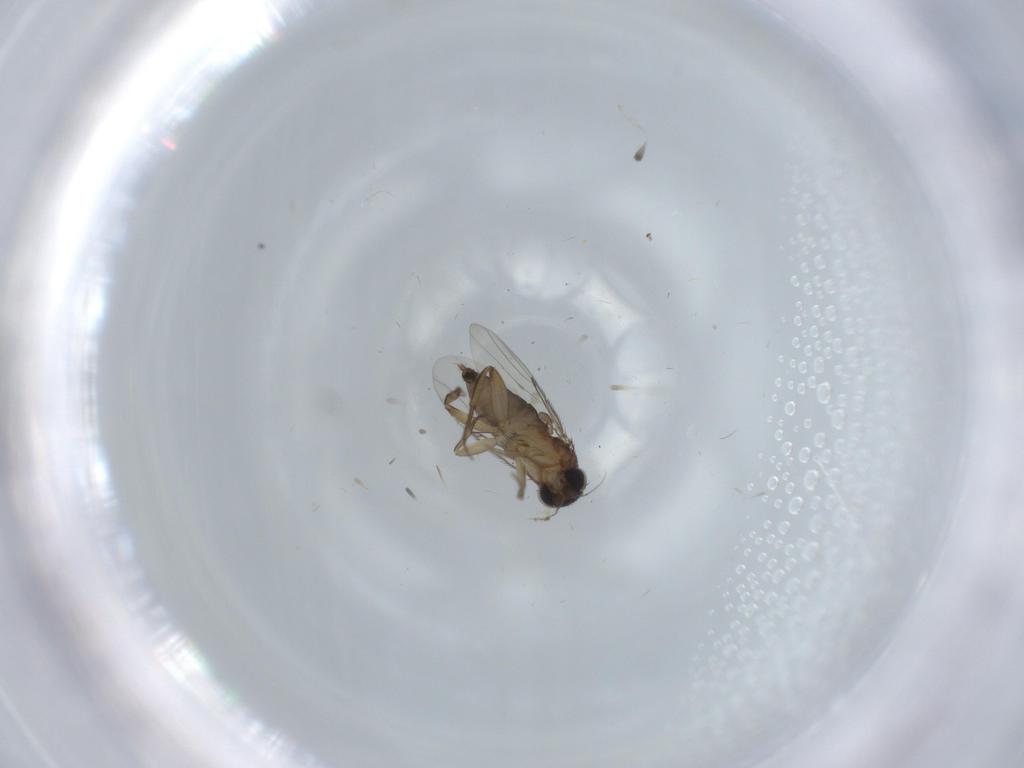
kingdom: Animalia
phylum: Arthropoda
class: Insecta
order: Diptera
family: Phoridae
